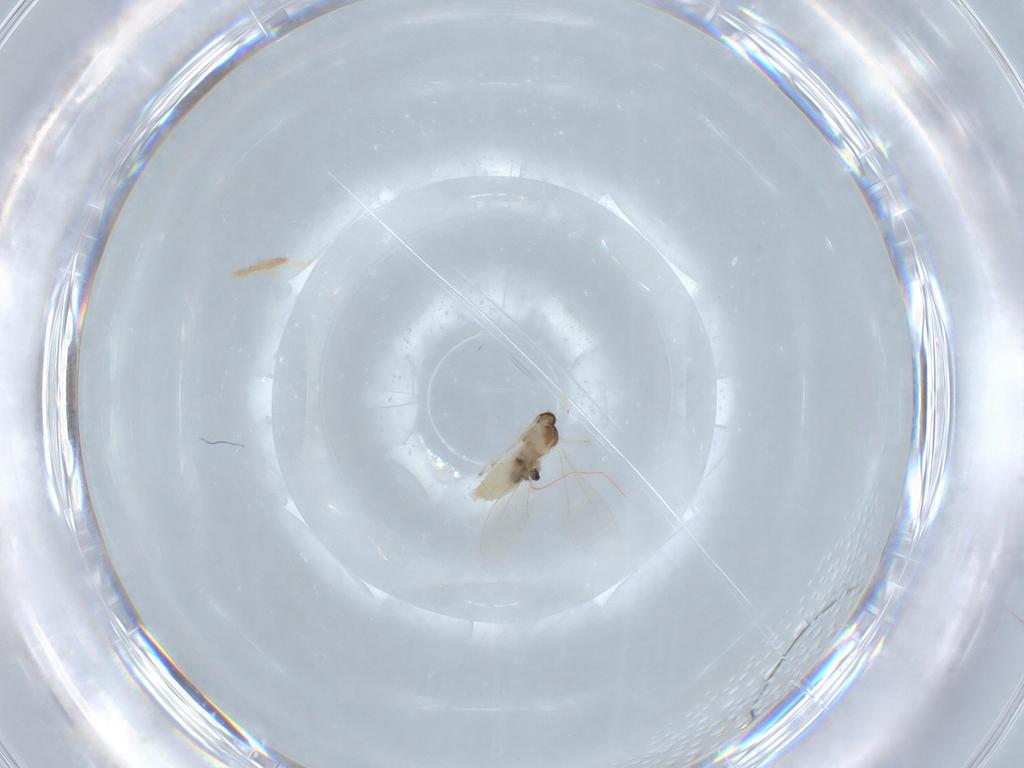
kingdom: Animalia
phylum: Arthropoda
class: Insecta
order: Diptera
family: Cecidomyiidae
